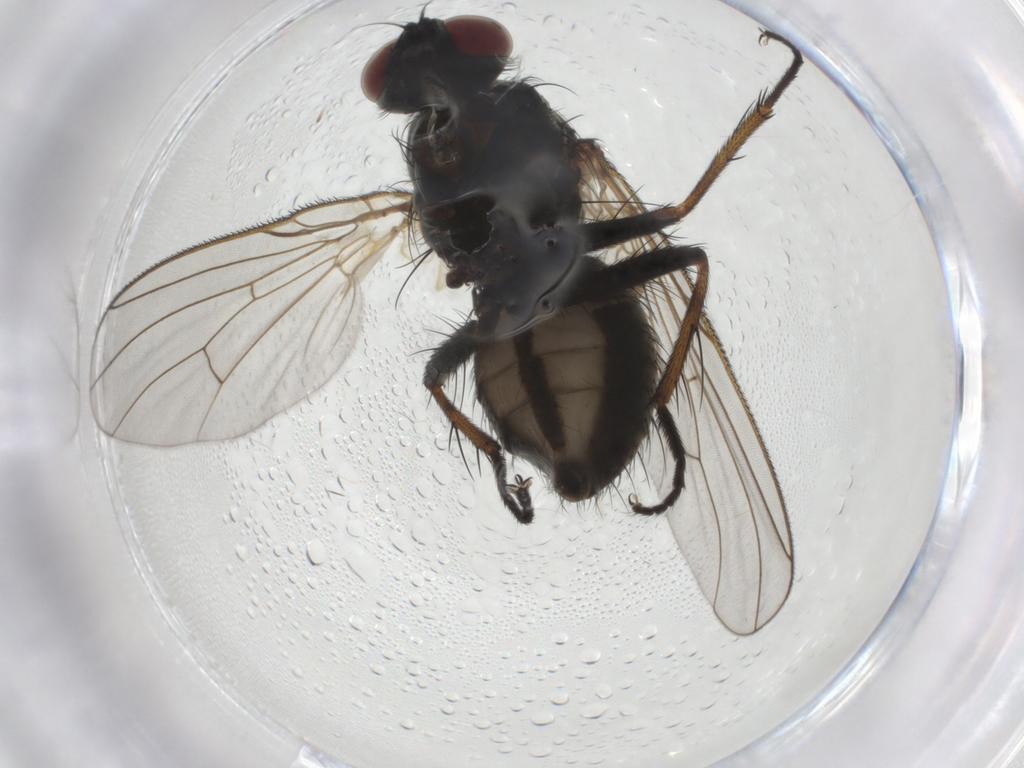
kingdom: Animalia
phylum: Arthropoda
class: Insecta
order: Diptera
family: Muscidae
